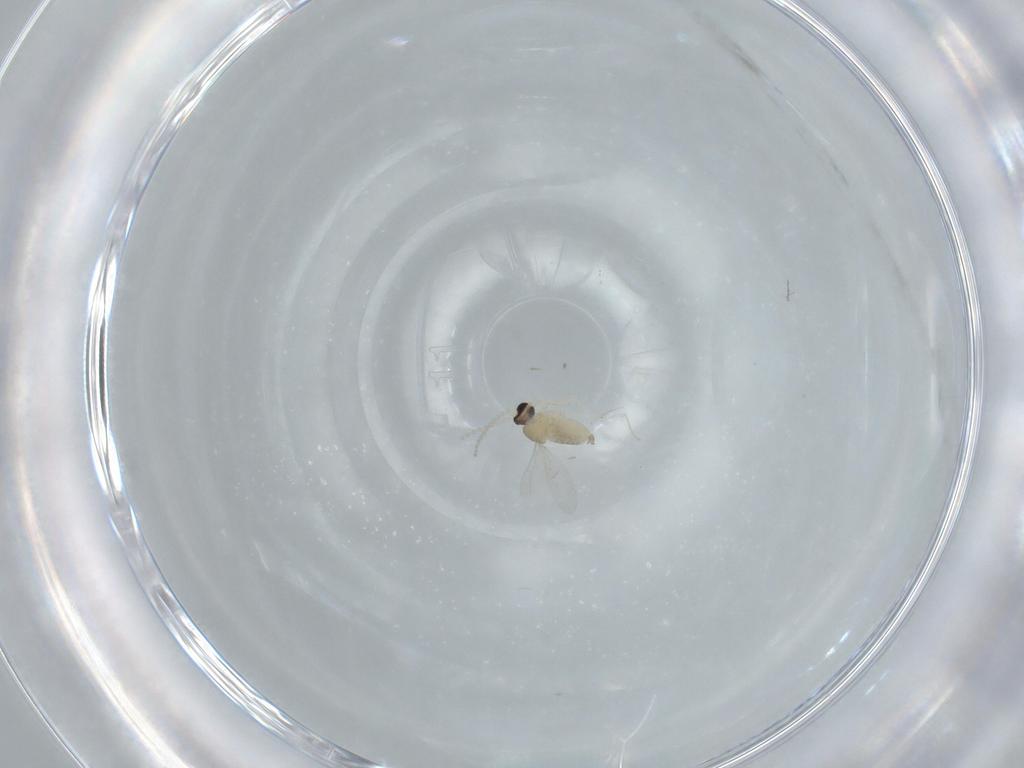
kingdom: Animalia
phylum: Arthropoda
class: Insecta
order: Diptera
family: Cecidomyiidae
